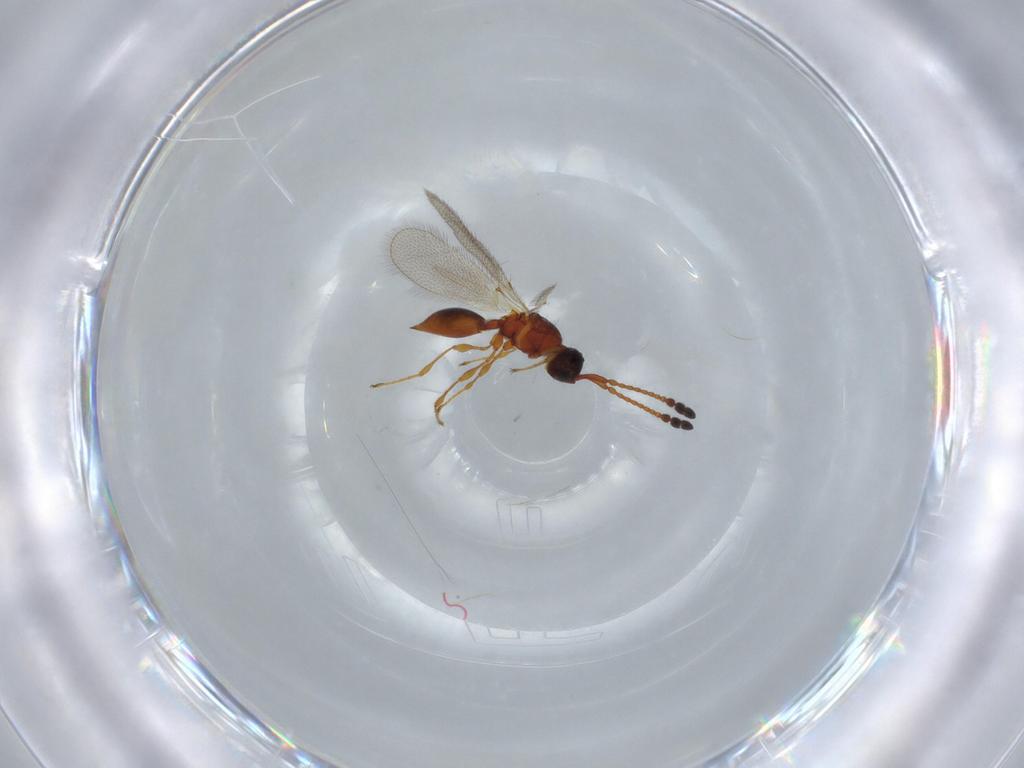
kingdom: Animalia
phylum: Arthropoda
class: Insecta
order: Hymenoptera
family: Diapriidae
